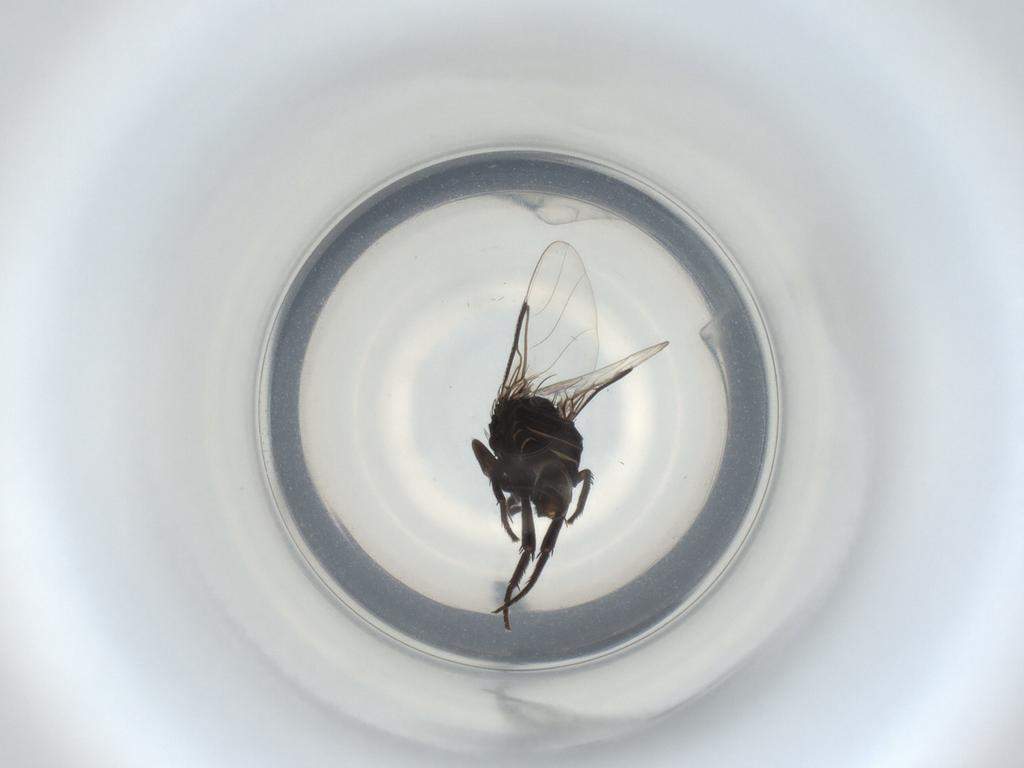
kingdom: Animalia
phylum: Arthropoda
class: Insecta
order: Diptera
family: Phoridae
